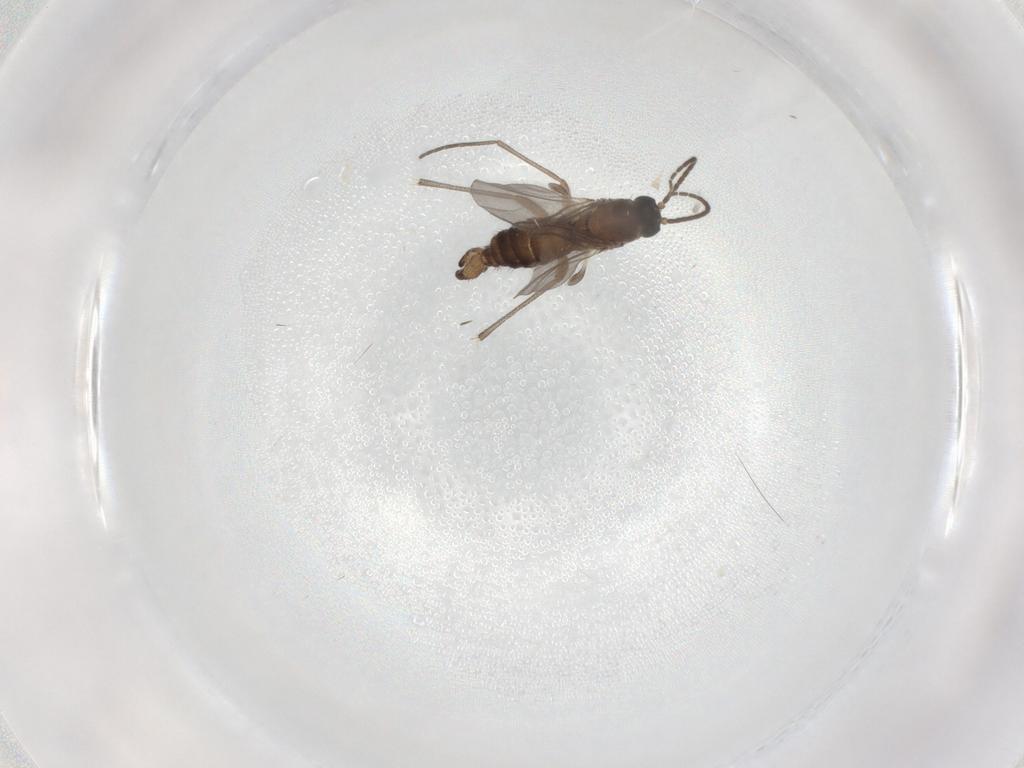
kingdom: Animalia
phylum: Arthropoda
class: Insecta
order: Diptera
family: Sciaridae
